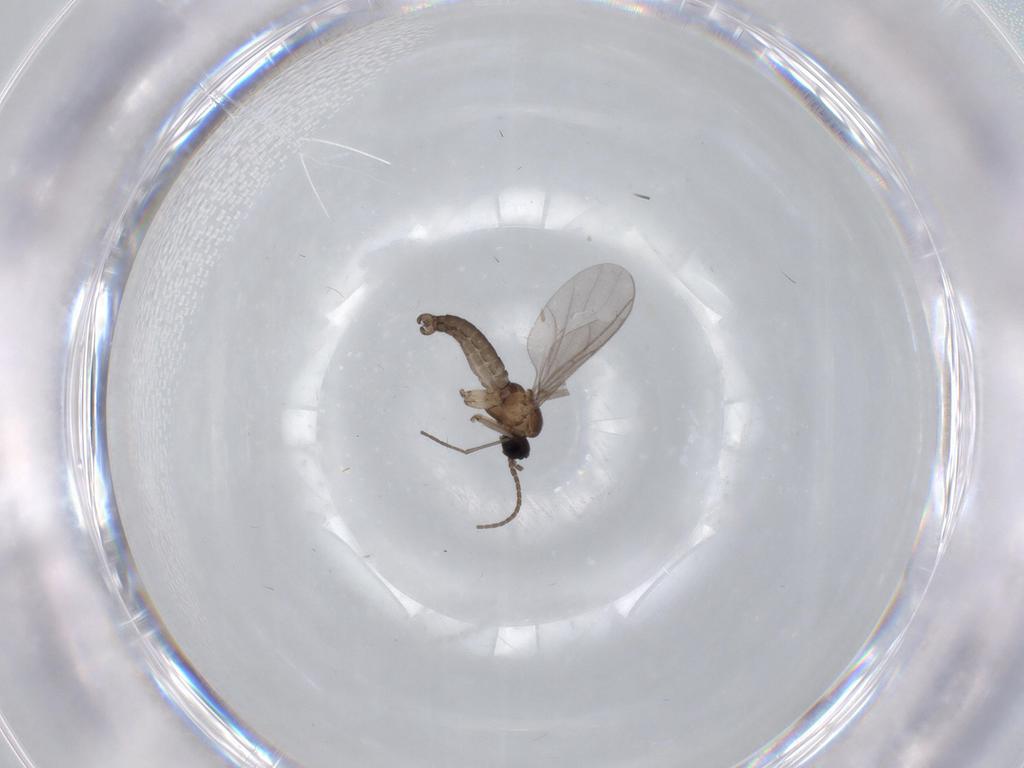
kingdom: Animalia
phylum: Arthropoda
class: Insecta
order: Diptera
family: Sciaridae
